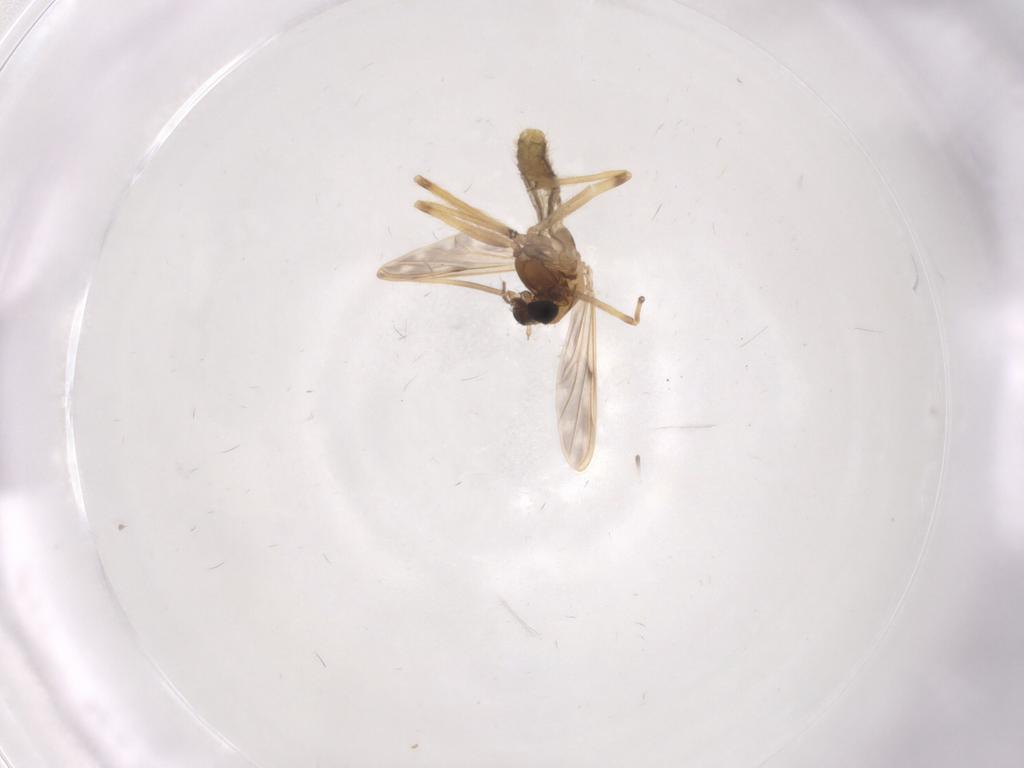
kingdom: Animalia
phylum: Arthropoda
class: Insecta
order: Diptera
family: Chironomidae
